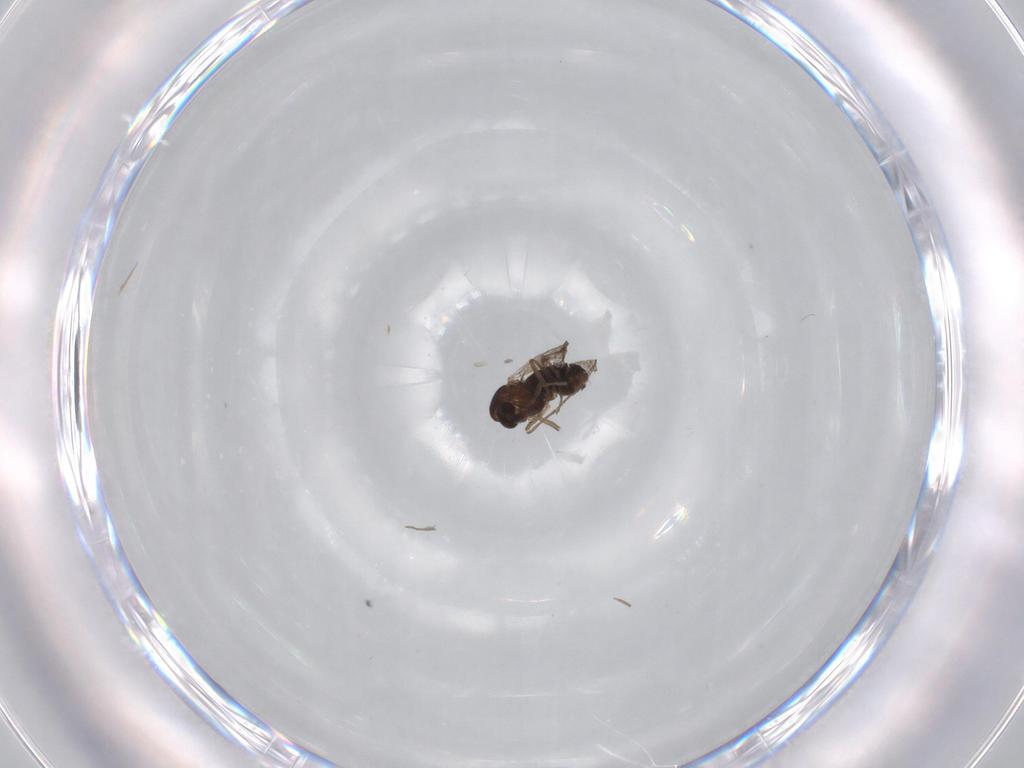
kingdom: Animalia
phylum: Arthropoda
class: Insecta
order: Diptera
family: Chironomidae
